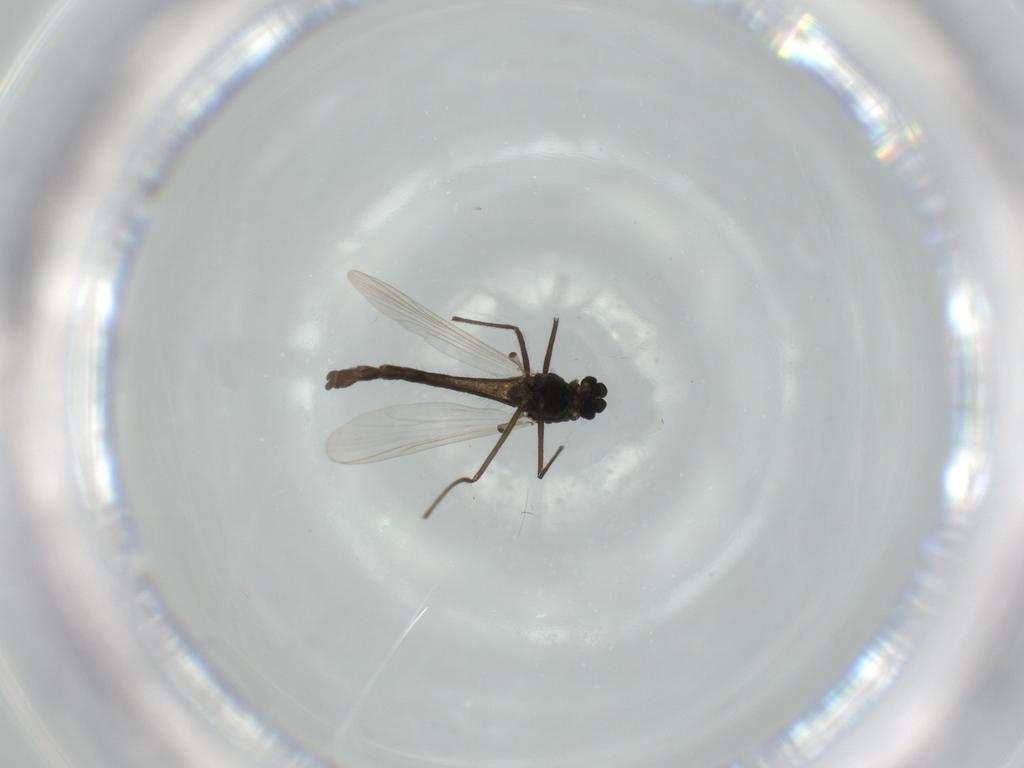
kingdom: Animalia
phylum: Arthropoda
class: Insecta
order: Diptera
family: Chironomidae
